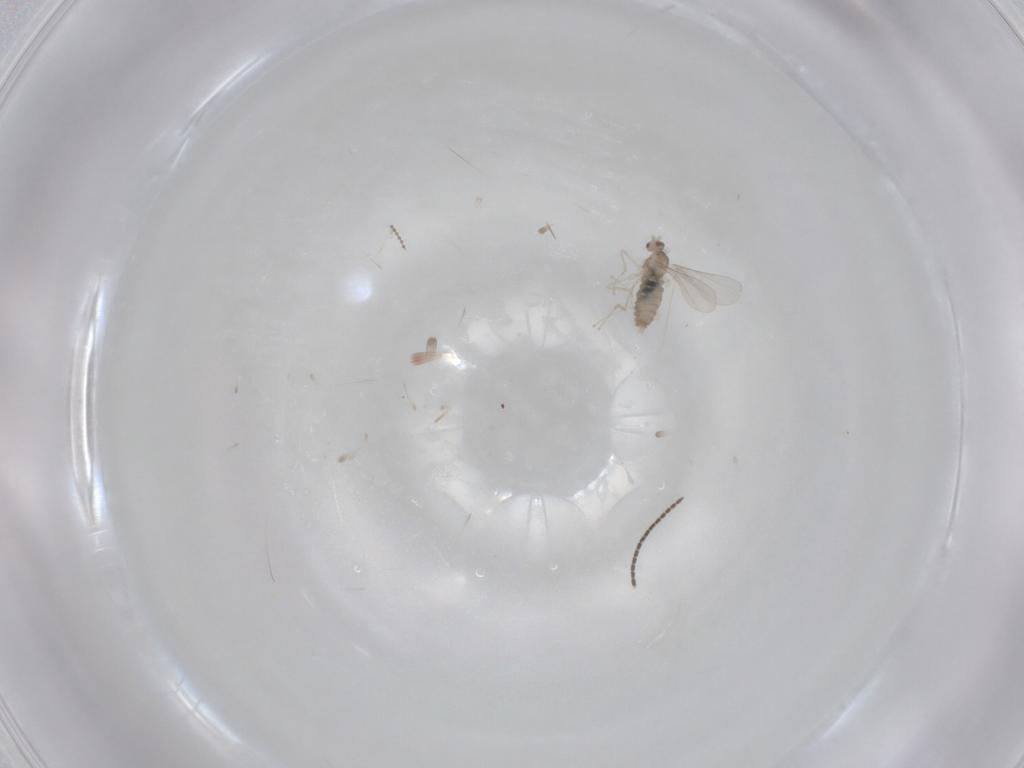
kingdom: Animalia
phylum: Arthropoda
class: Insecta
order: Diptera
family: Cecidomyiidae
